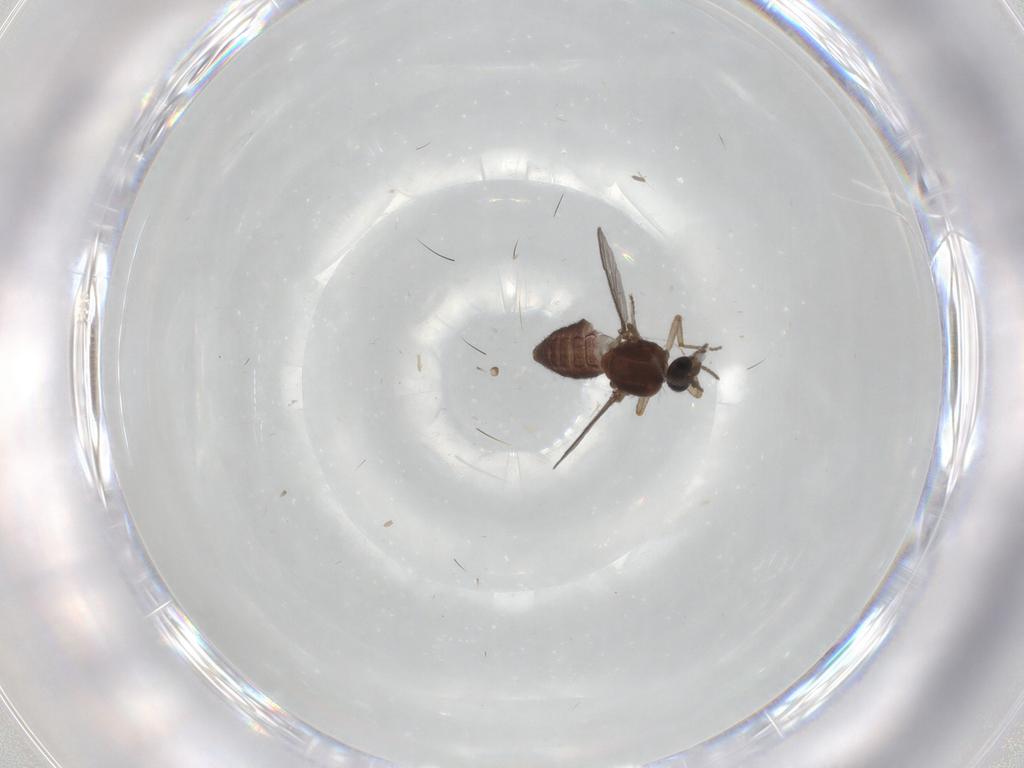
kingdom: Animalia
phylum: Arthropoda
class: Insecta
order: Diptera
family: Ceratopogonidae
